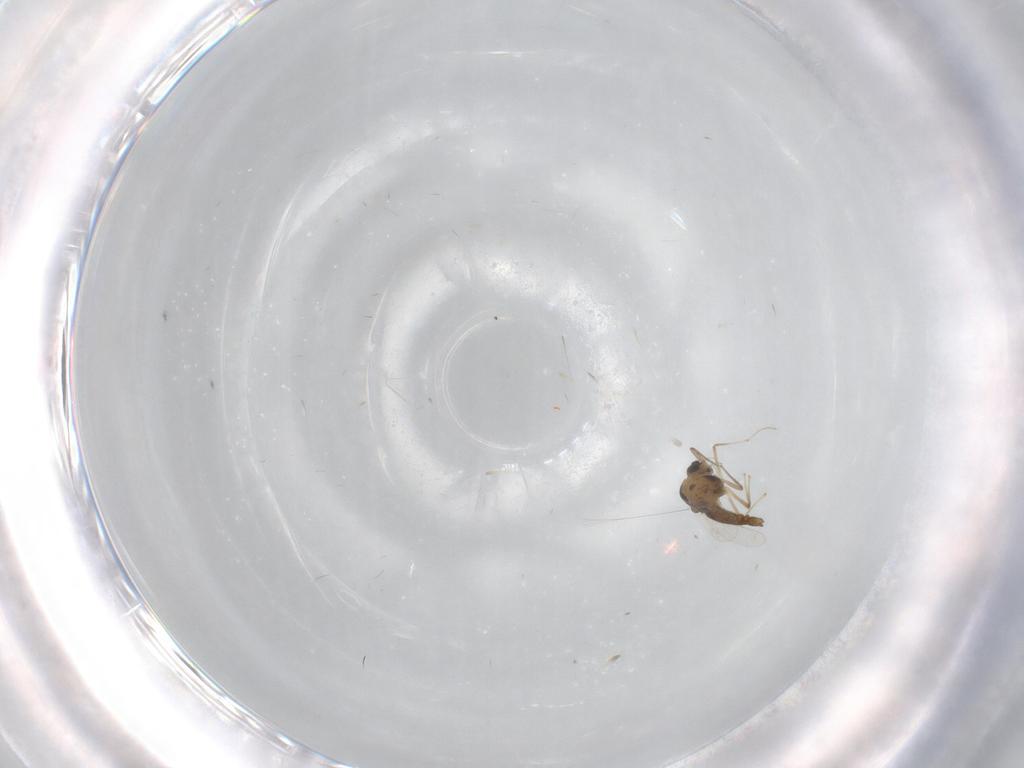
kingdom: Animalia
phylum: Arthropoda
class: Insecta
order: Diptera
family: Chironomidae
